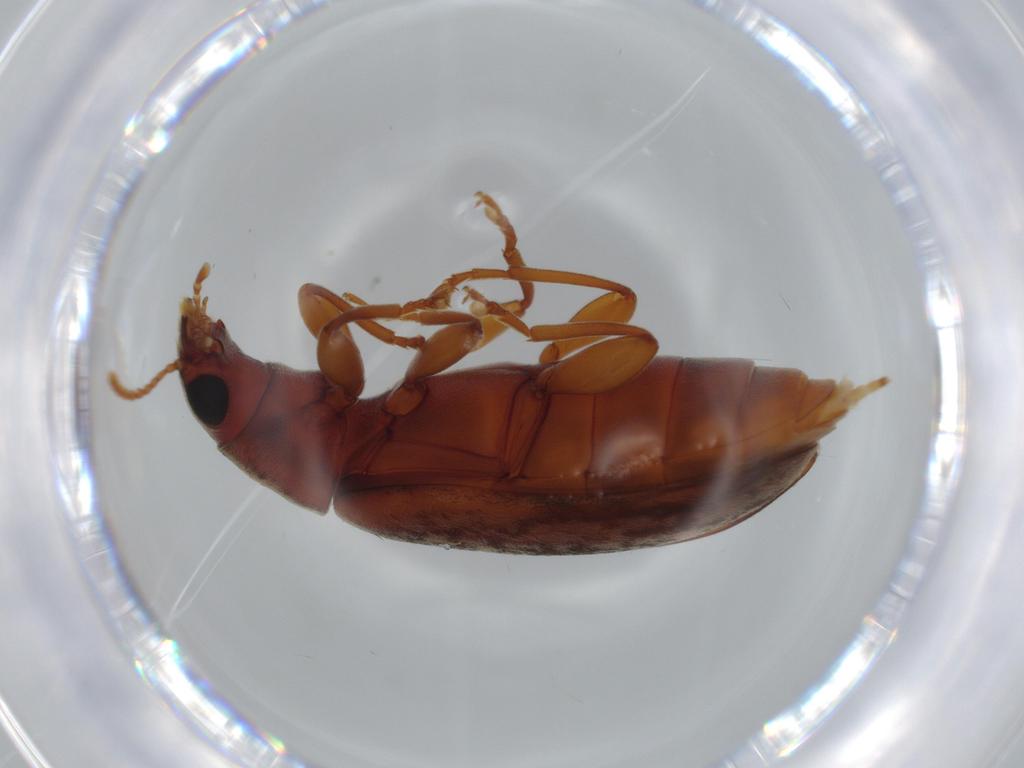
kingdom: Animalia
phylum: Arthropoda
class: Insecta
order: Coleoptera
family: Mycteridae
